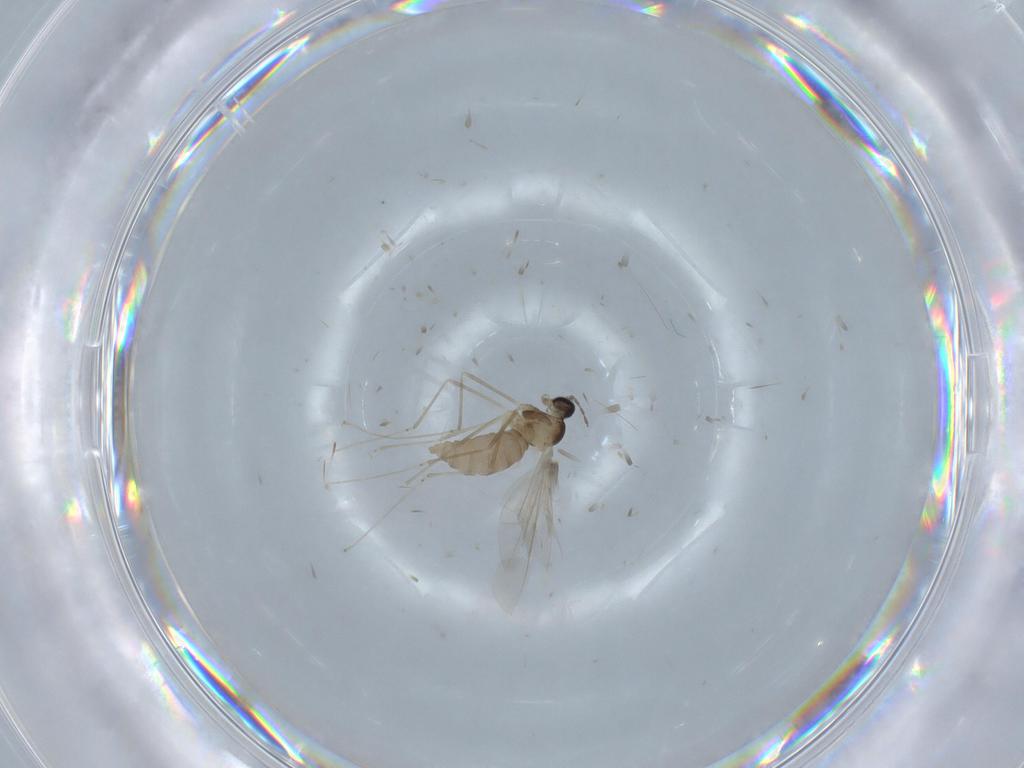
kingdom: Animalia
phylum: Arthropoda
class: Insecta
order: Diptera
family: Cecidomyiidae
